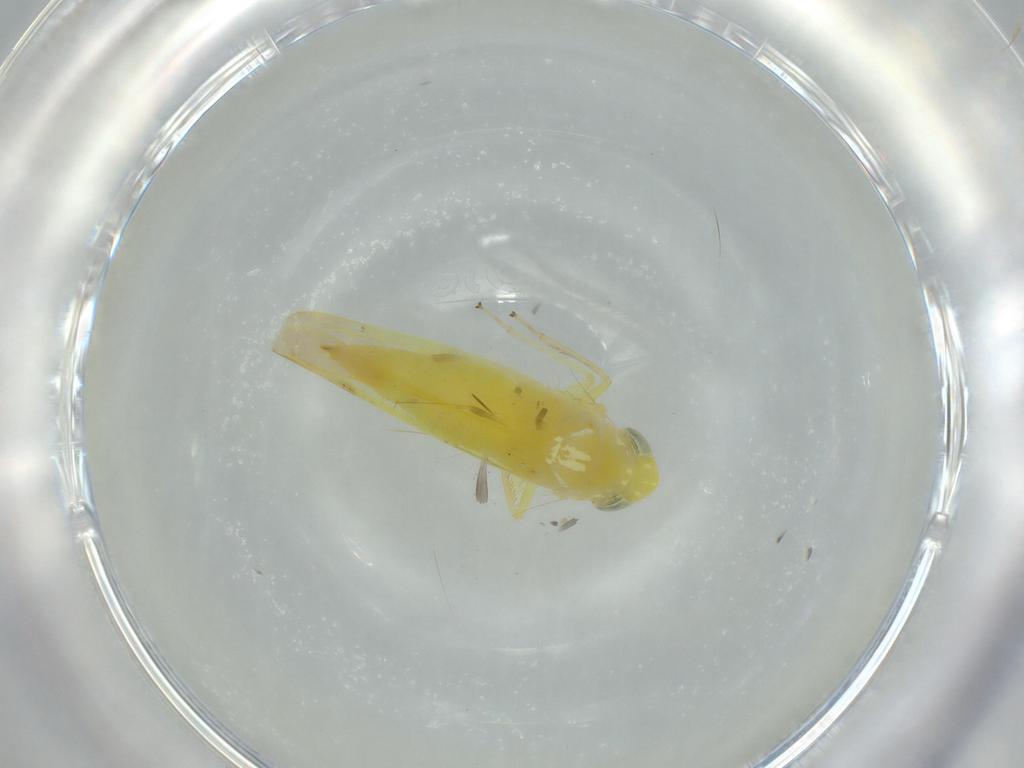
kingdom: Animalia
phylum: Arthropoda
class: Insecta
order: Hemiptera
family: Cicadellidae
